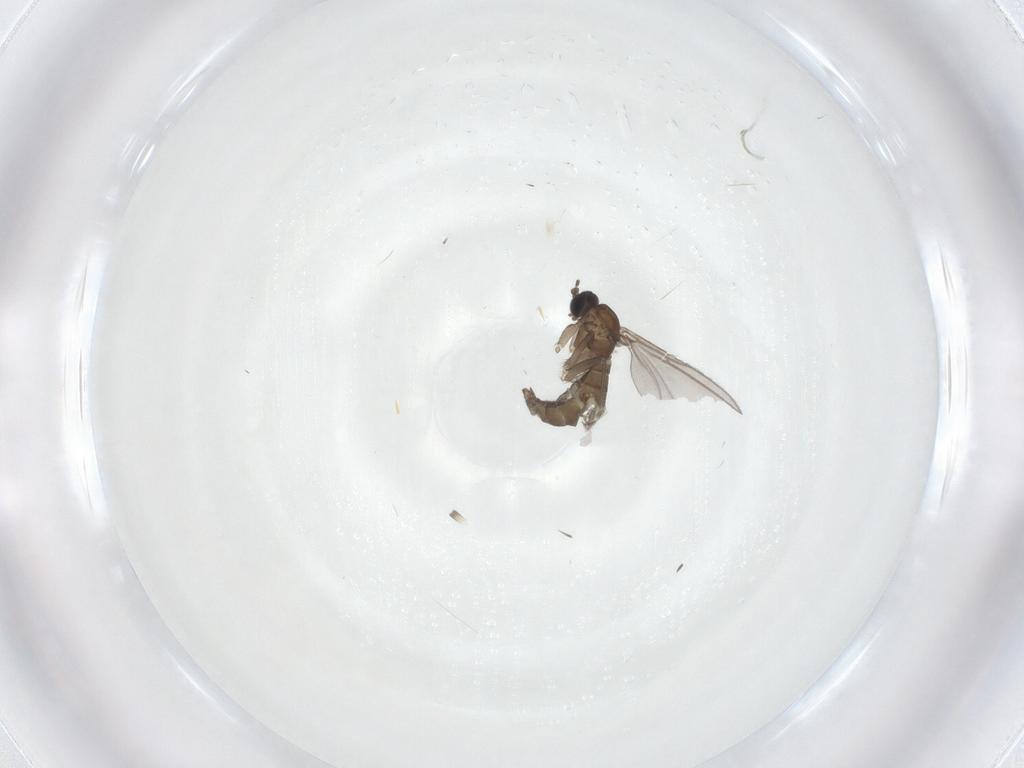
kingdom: Animalia
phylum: Arthropoda
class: Insecta
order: Diptera
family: Sciaridae
